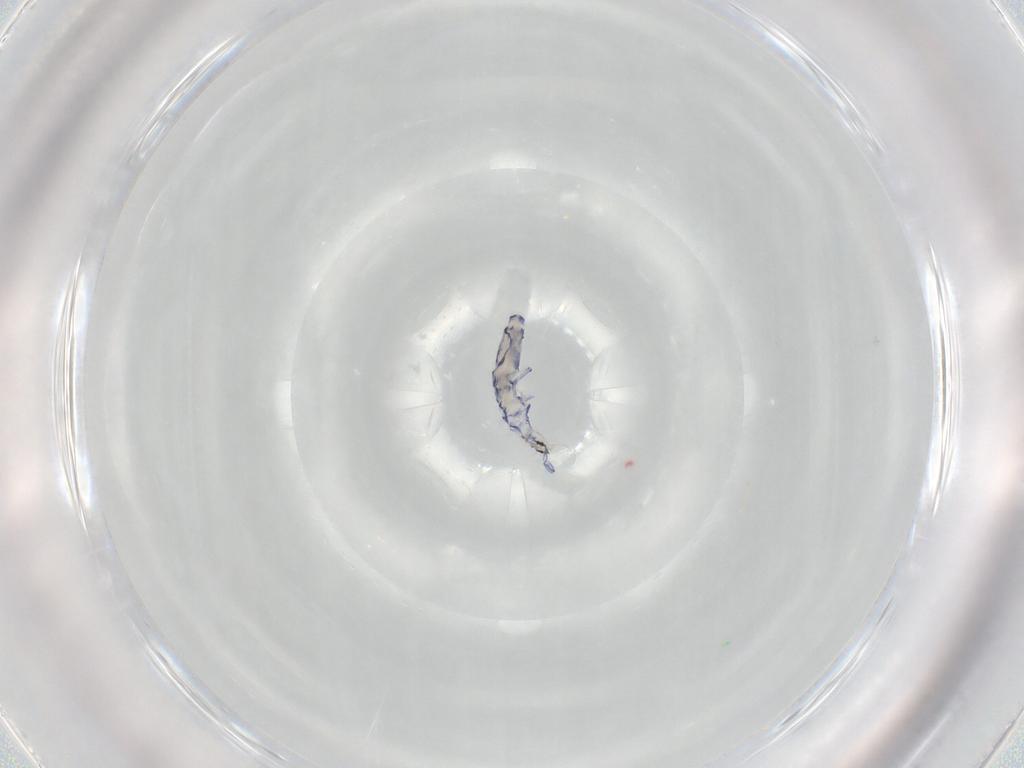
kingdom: Animalia
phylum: Arthropoda
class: Collembola
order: Entomobryomorpha
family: Entomobryidae
